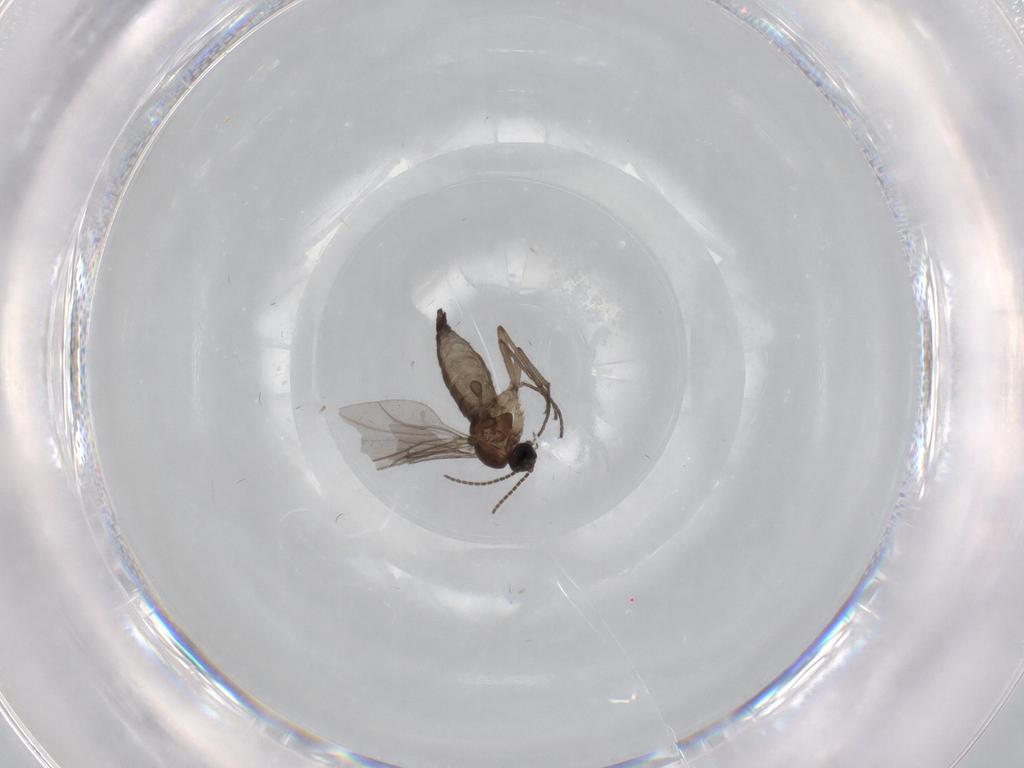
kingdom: Animalia
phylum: Arthropoda
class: Insecta
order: Diptera
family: Sciaridae
